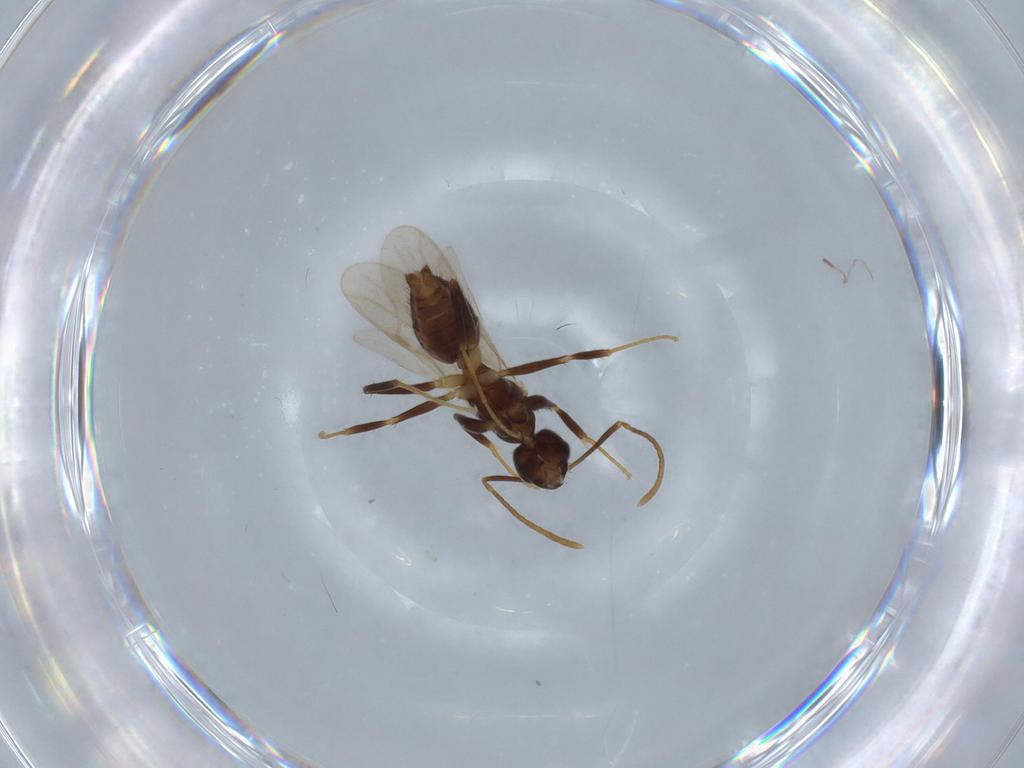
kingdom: Animalia
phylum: Arthropoda
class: Insecta
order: Hymenoptera
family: Formicidae
